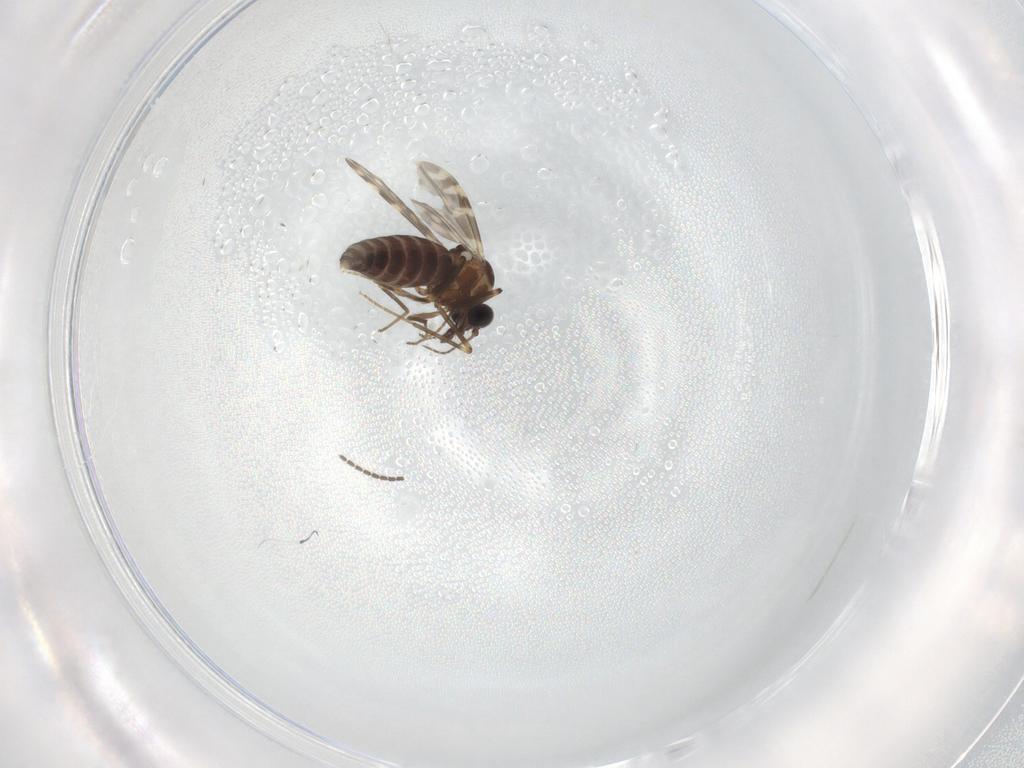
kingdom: Animalia
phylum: Arthropoda
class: Insecta
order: Diptera
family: Ceratopogonidae
